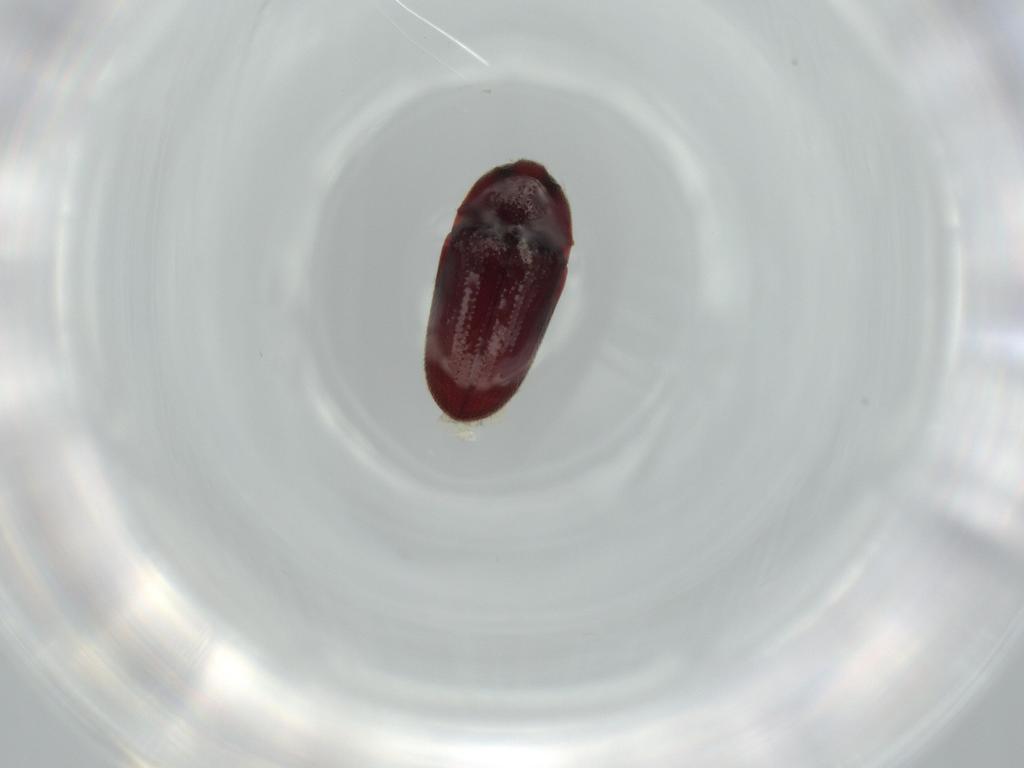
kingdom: Animalia
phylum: Arthropoda
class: Insecta
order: Coleoptera
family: Throscidae
